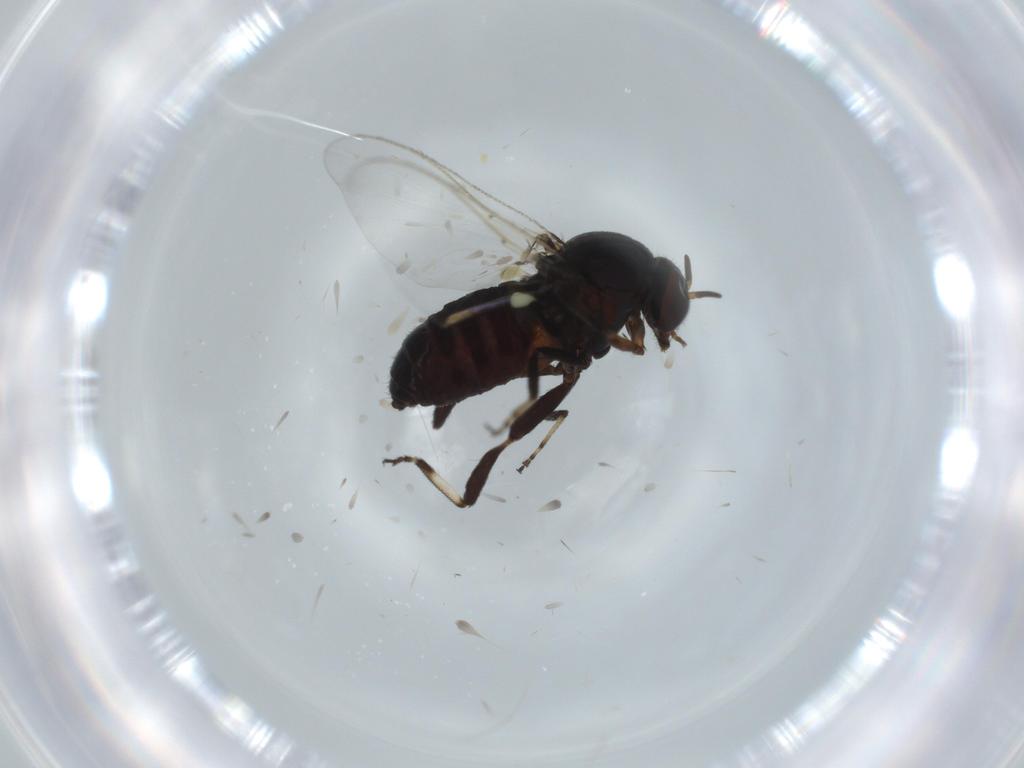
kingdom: Animalia
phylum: Arthropoda
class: Insecta
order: Diptera
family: Simuliidae
